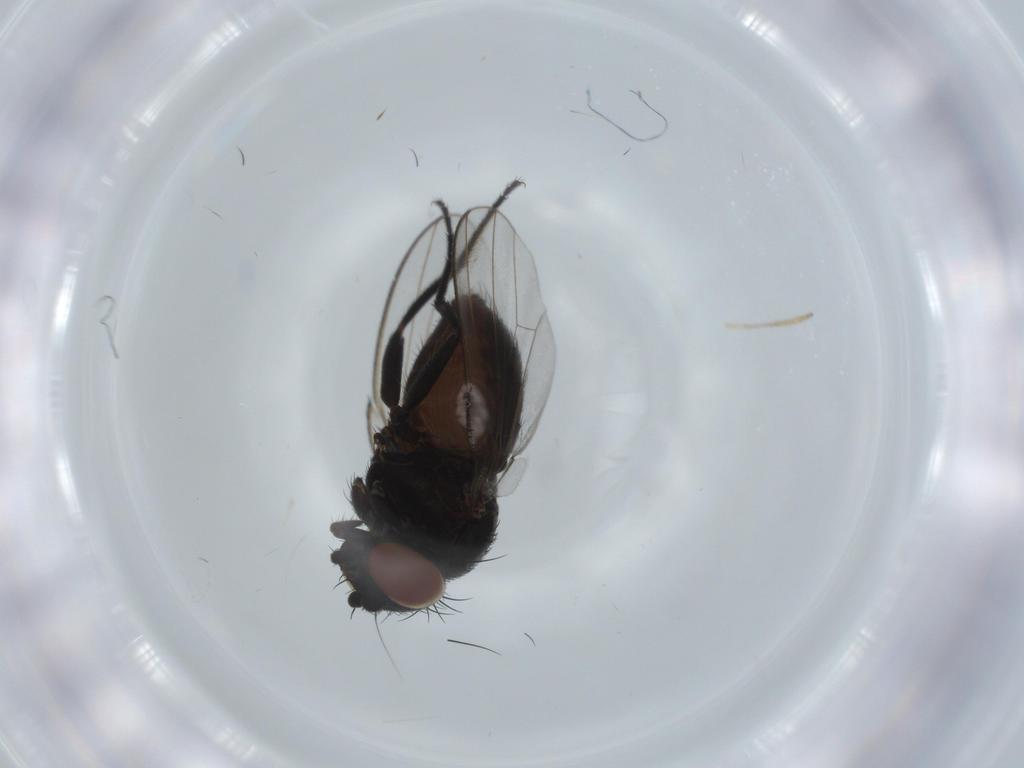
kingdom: Animalia
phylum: Arthropoda
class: Insecta
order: Diptera
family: Milichiidae
